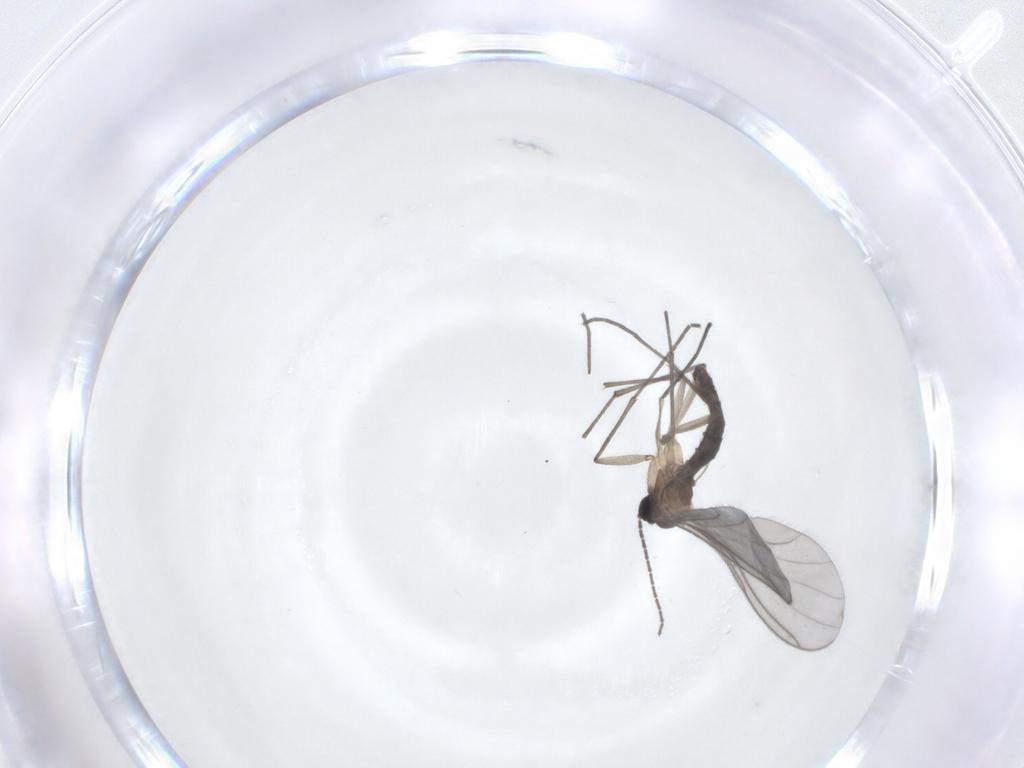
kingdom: Animalia
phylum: Arthropoda
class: Insecta
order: Diptera
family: Sciaridae
